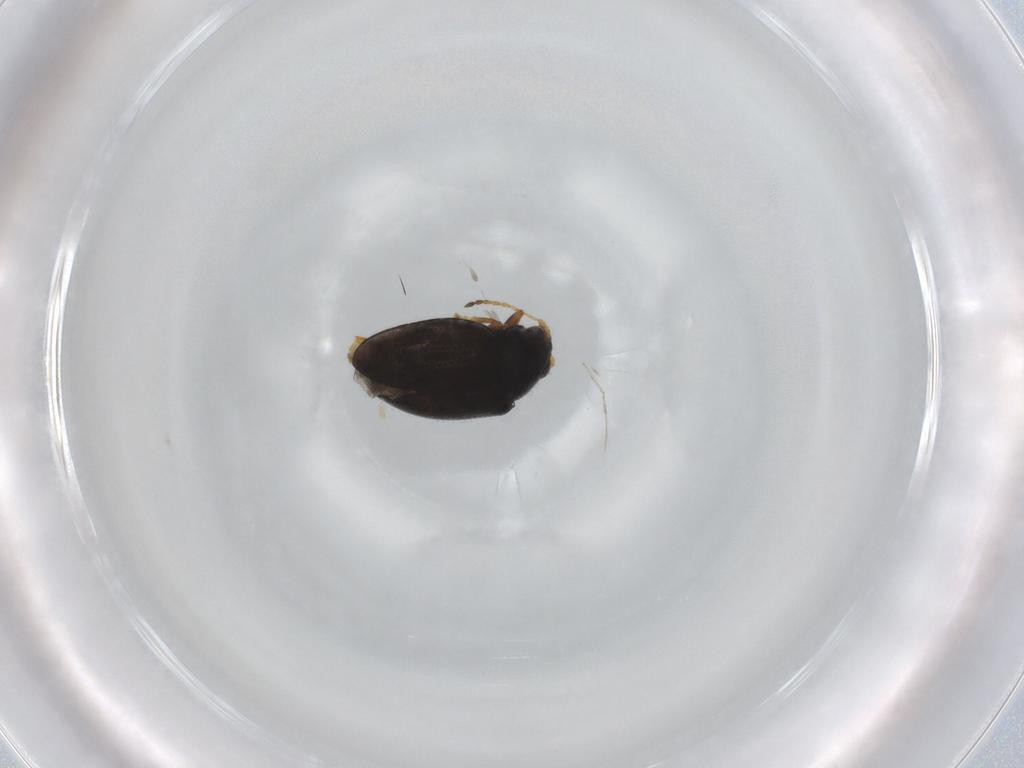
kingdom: Animalia
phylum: Arthropoda
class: Insecta
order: Coleoptera
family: Chrysomelidae
